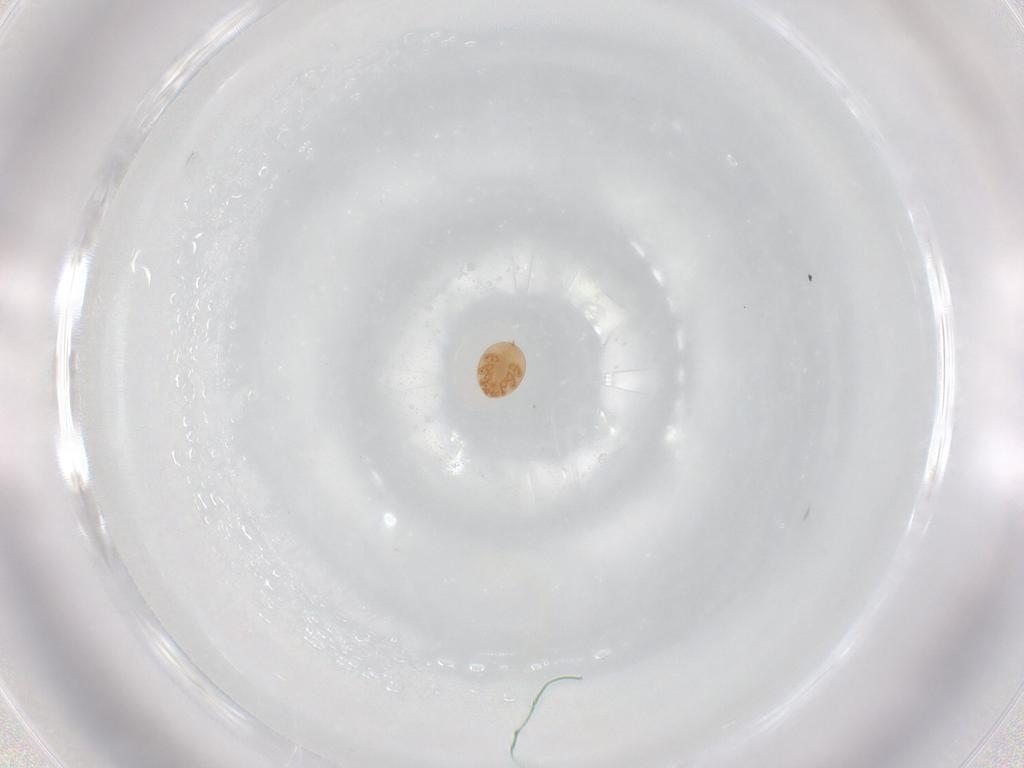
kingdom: Animalia
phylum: Arthropoda
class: Arachnida
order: Mesostigmata
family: Trematuridae
